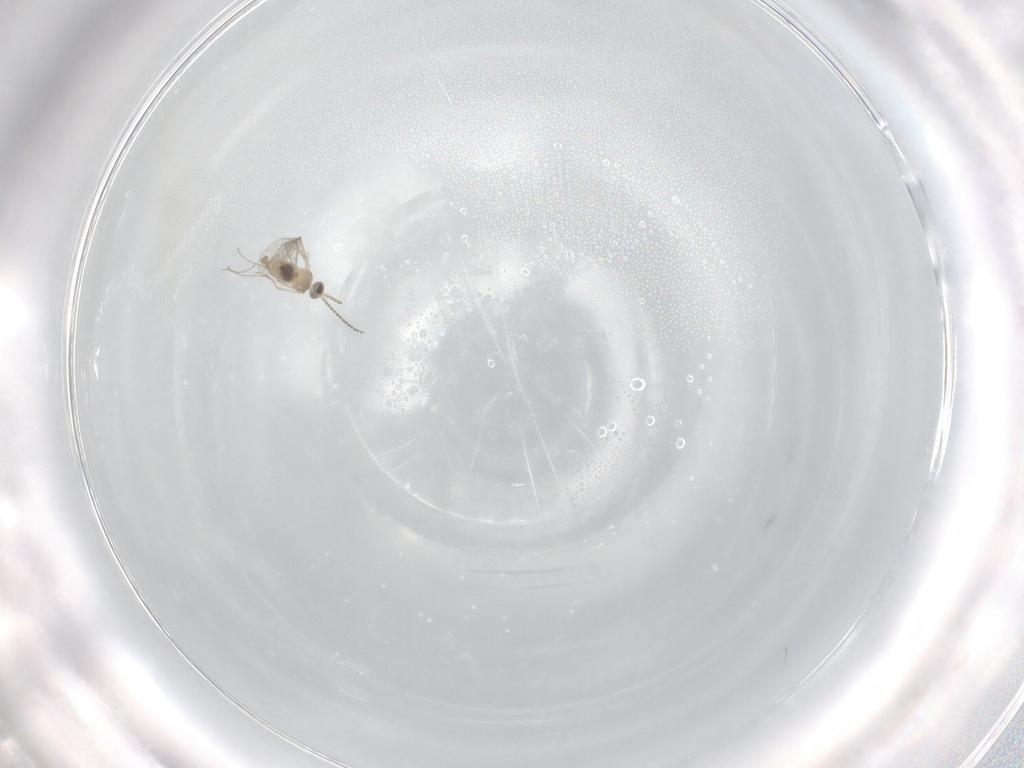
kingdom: Animalia
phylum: Arthropoda
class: Insecta
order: Diptera
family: Cecidomyiidae
